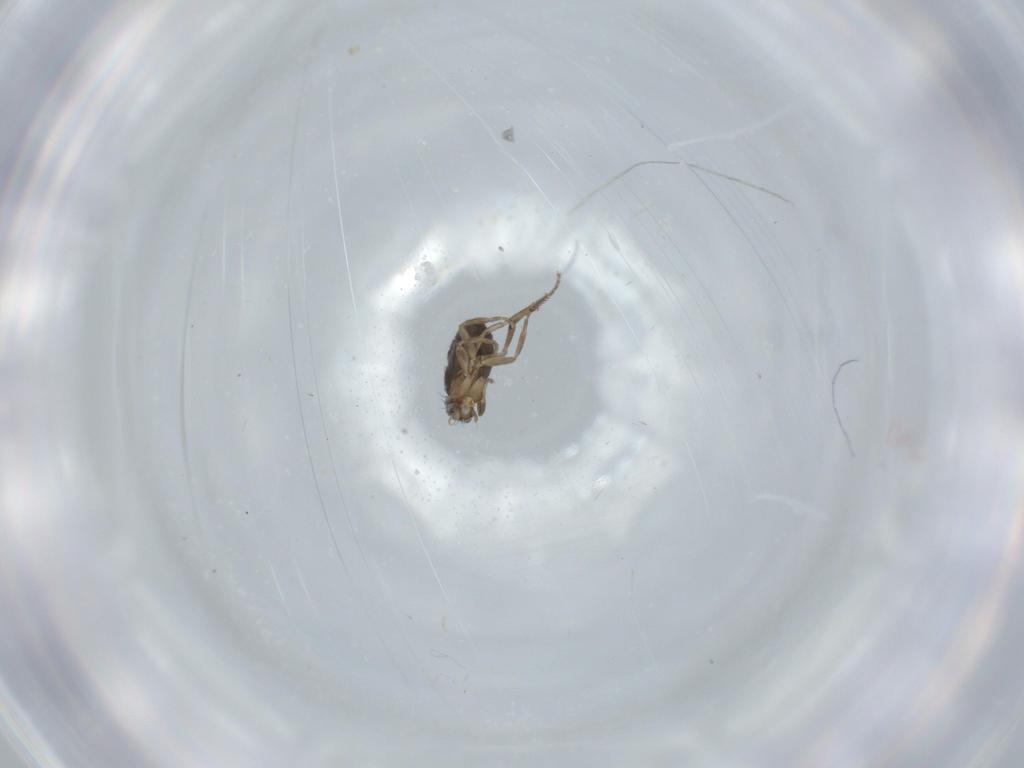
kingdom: Animalia
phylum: Arthropoda
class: Insecta
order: Diptera
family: Phoridae
